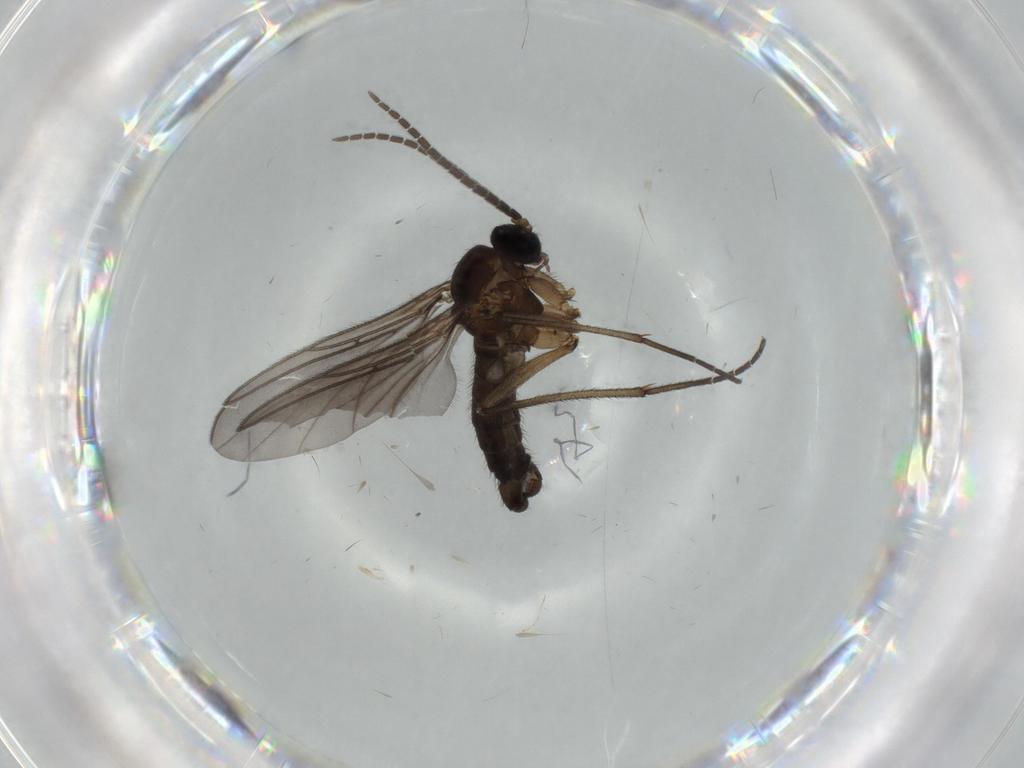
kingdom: Animalia
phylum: Arthropoda
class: Insecta
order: Diptera
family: Sciaridae
